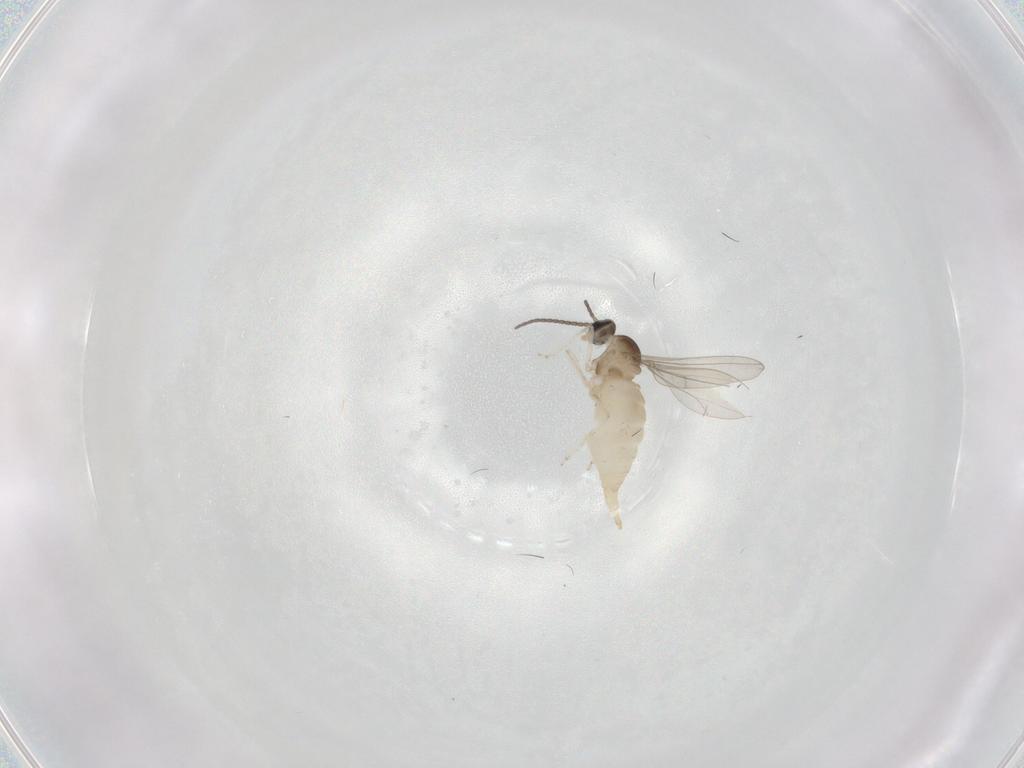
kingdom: Animalia
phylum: Arthropoda
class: Insecta
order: Diptera
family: Cecidomyiidae
